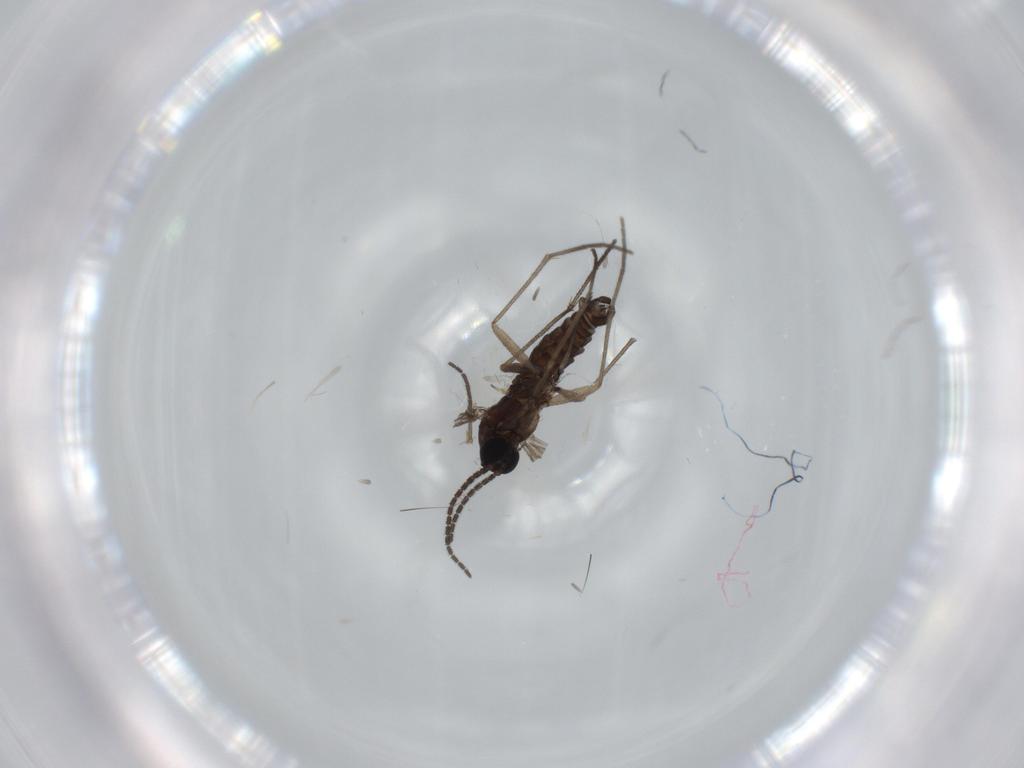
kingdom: Animalia
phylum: Arthropoda
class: Insecta
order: Diptera
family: Sciaridae
